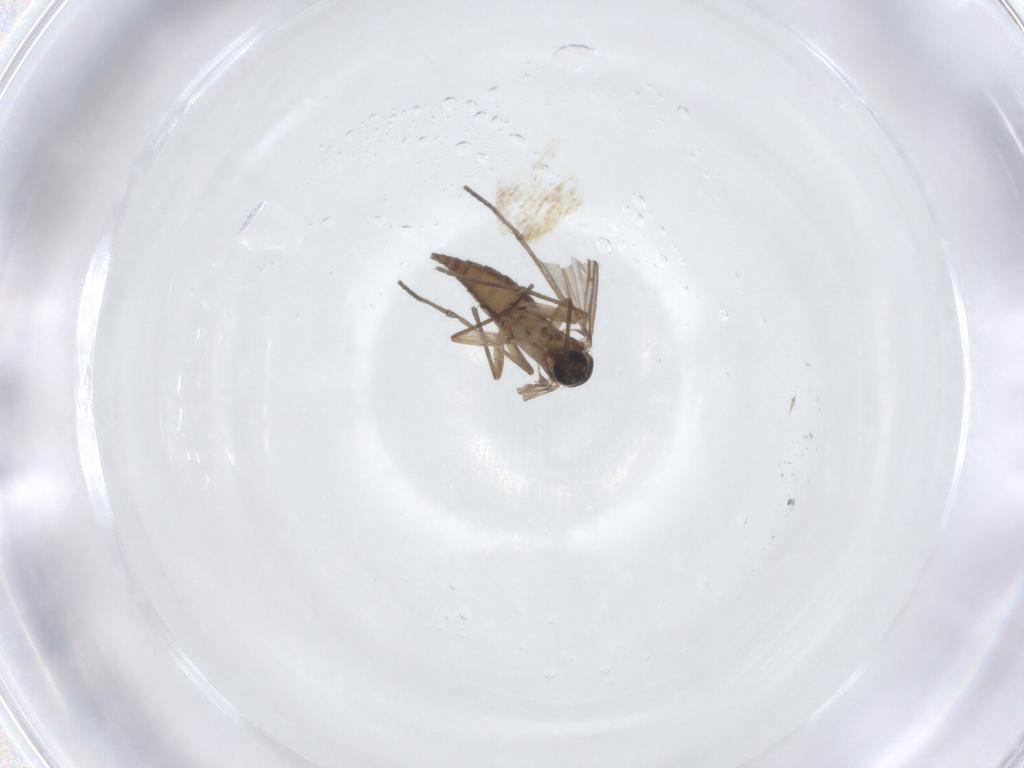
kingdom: Animalia
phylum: Arthropoda
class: Insecta
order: Diptera
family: Sciaridae
